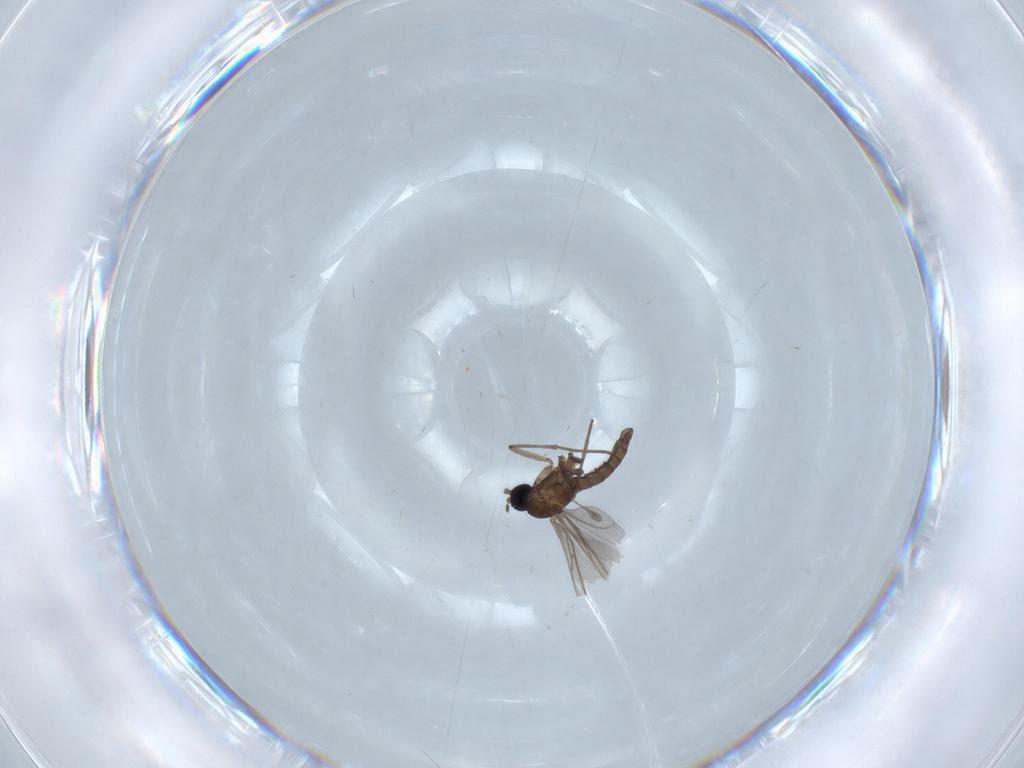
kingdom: Animalia
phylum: Arthropoda
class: Insecta
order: Diptera
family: Sciaridae
